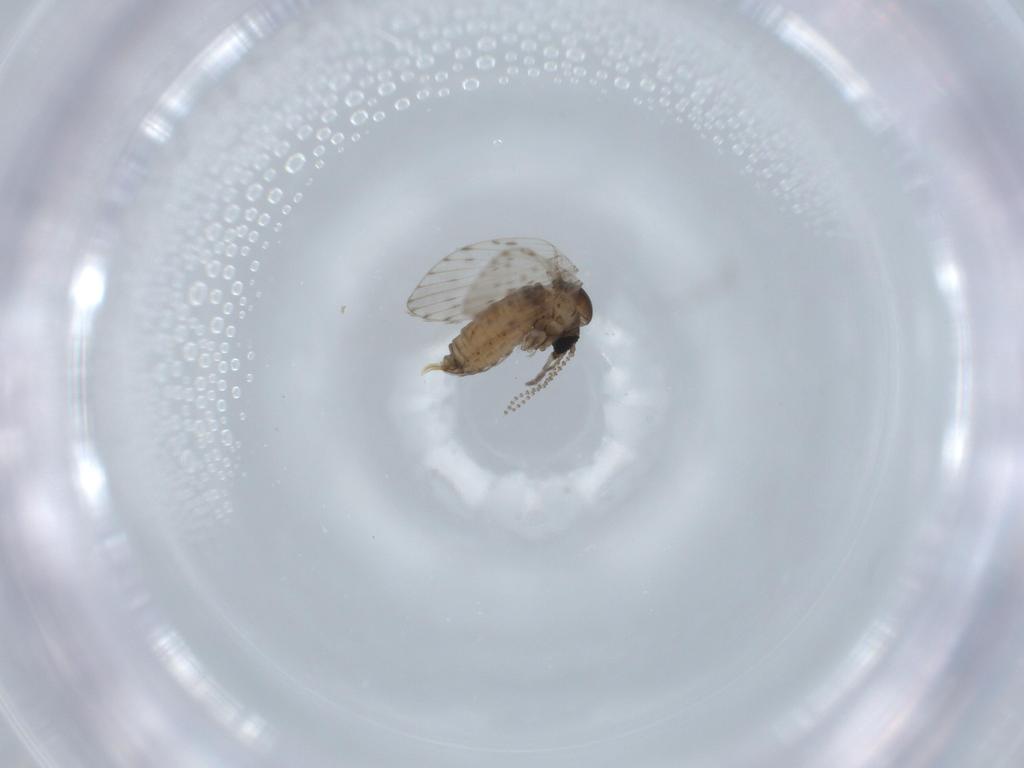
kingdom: Animalia
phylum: Arthropoda
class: Insecta
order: Diptera
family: Psychodidae
